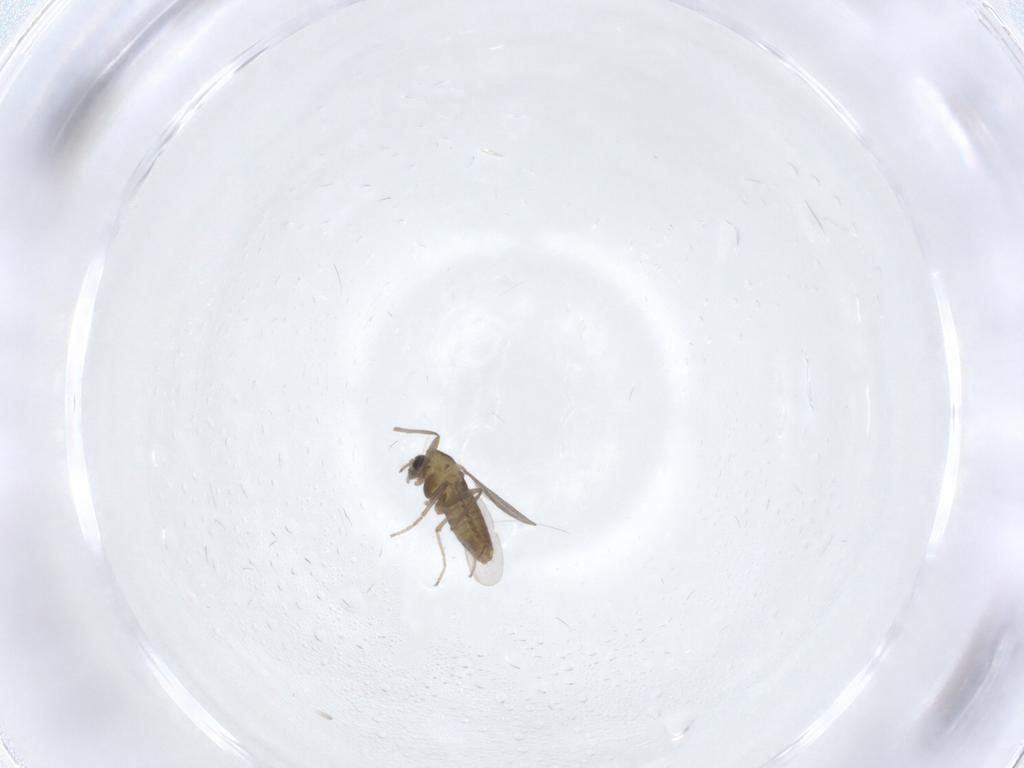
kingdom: Animalia
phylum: Arthropoda
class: Insecta
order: Diptera
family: Chironomidae
